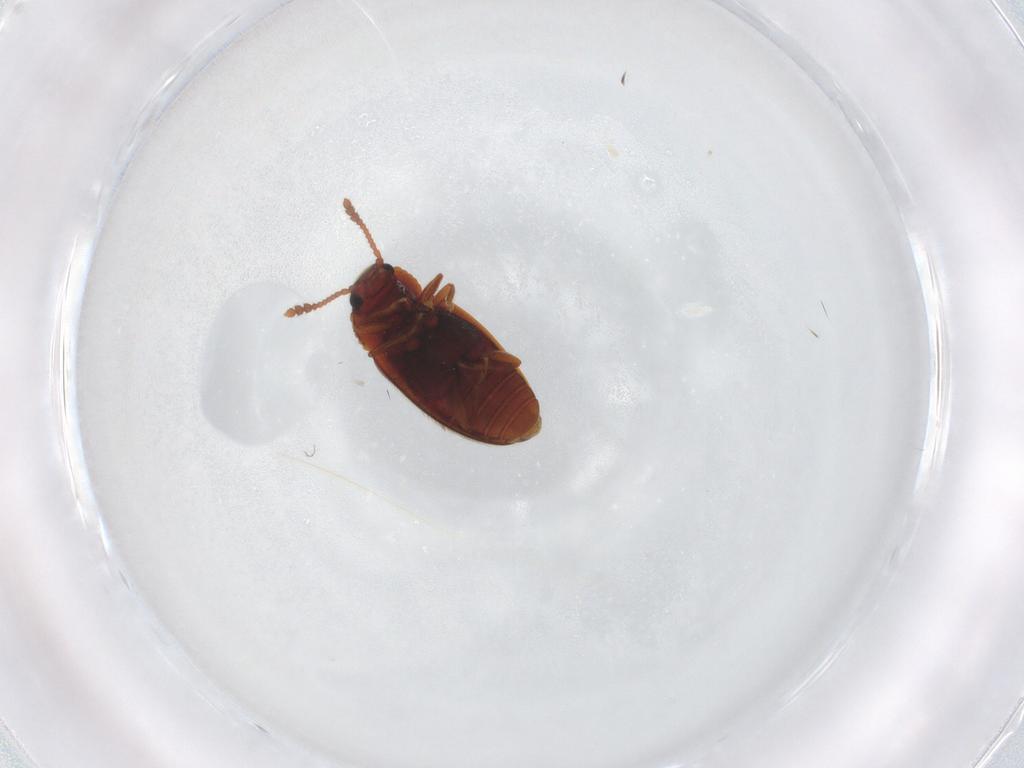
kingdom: Animalia
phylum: Arthropoda
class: Insecta
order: Coleoptera
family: Erotylidae
